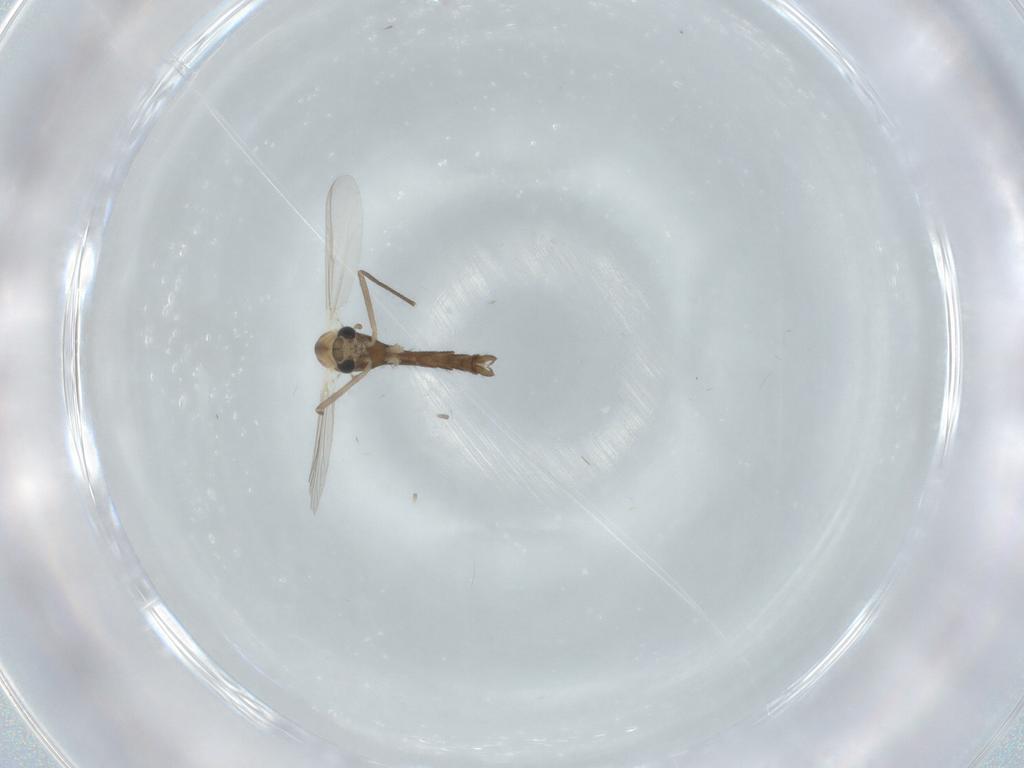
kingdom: Animalia
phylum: Arthropoda
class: Insecta
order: Diptera
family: Chironomidae
